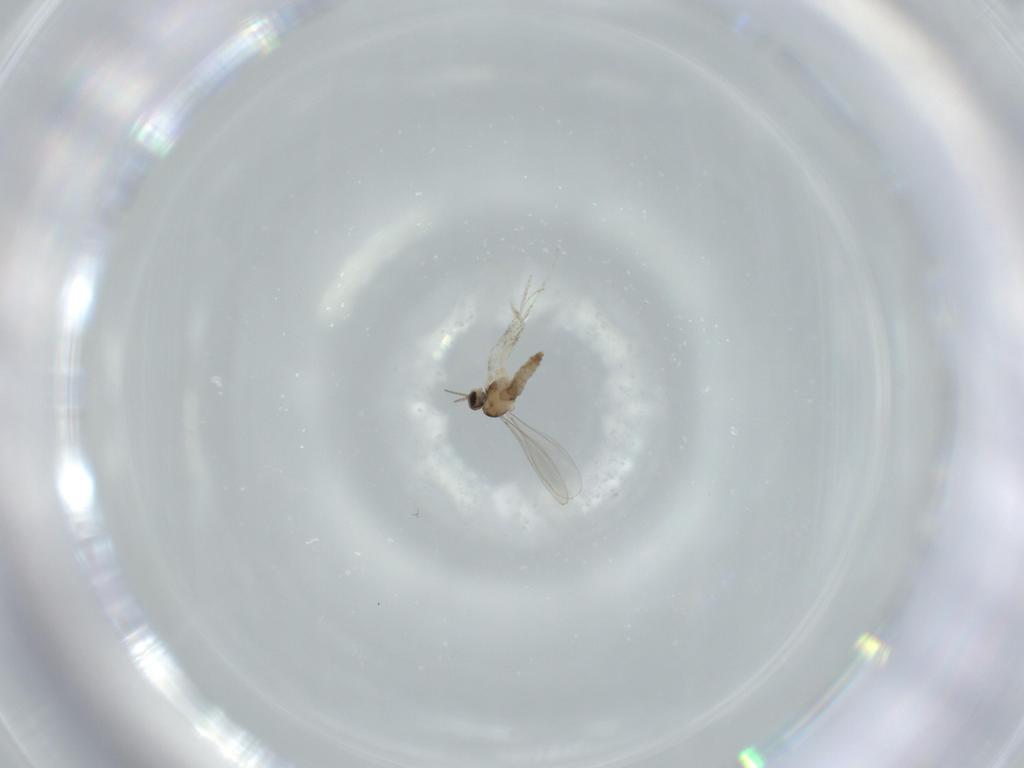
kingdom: Animalia
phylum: Arthropoda
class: Insecta
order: Diptera
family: Cecidomyiidae
